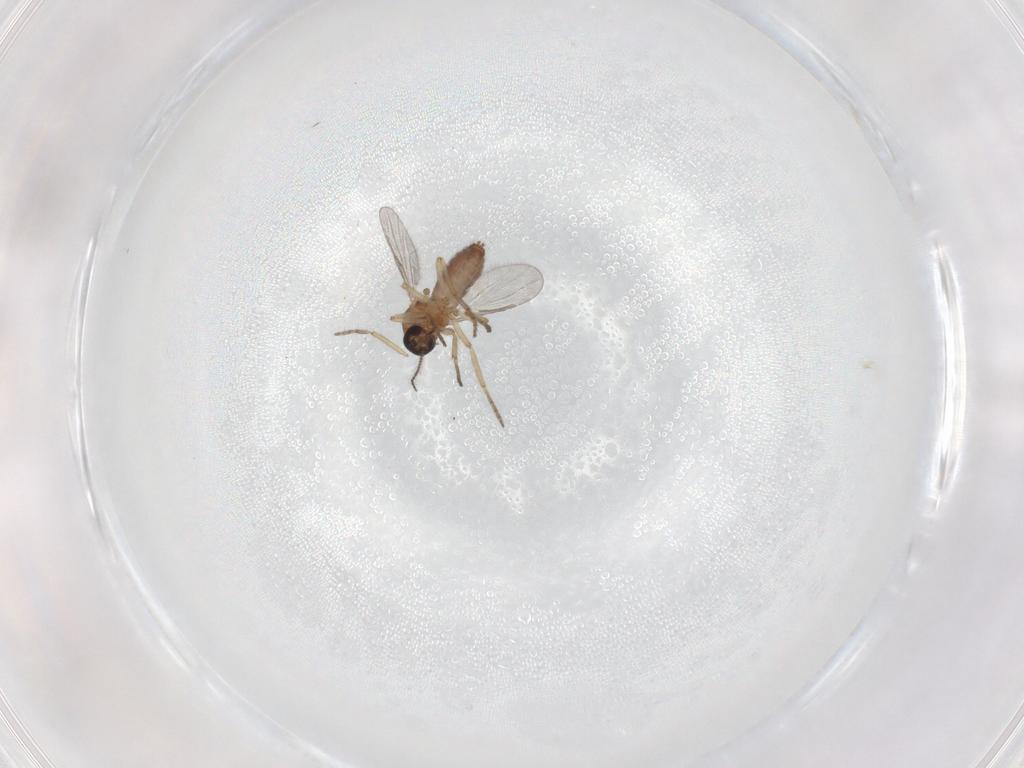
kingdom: Animalia
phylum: Arthropoda
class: Insecta
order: Diptera
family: Ceratopogonidae
